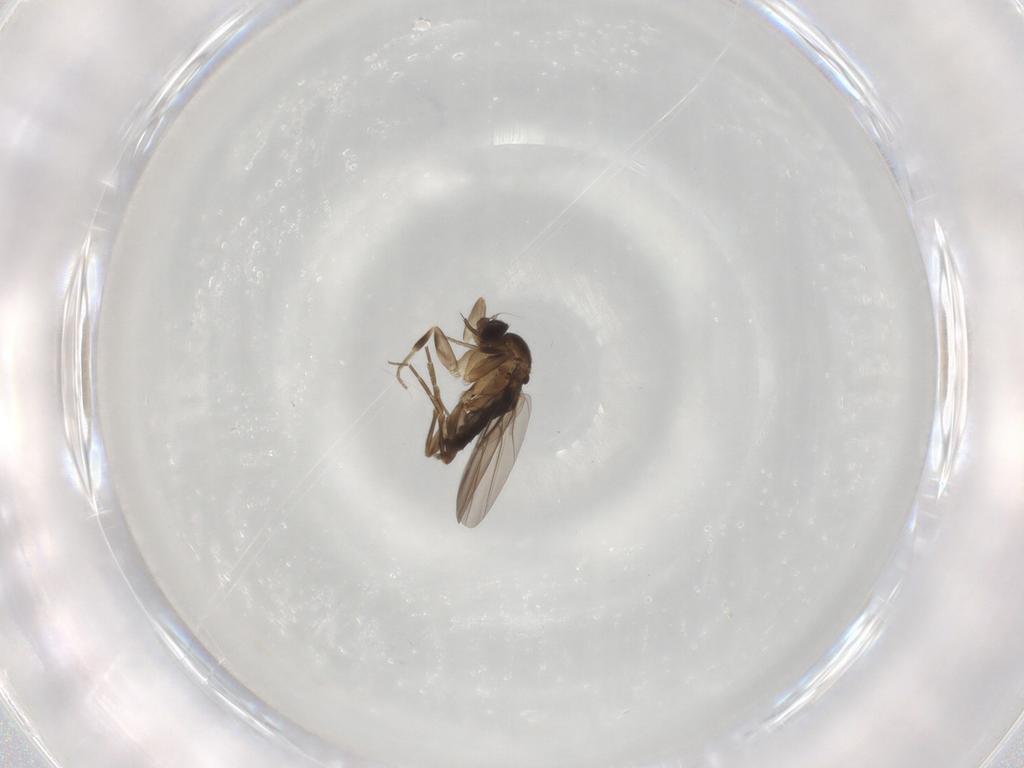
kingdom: Animalia
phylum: Arthropoda
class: Insecta
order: Diptera
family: Phoridae
